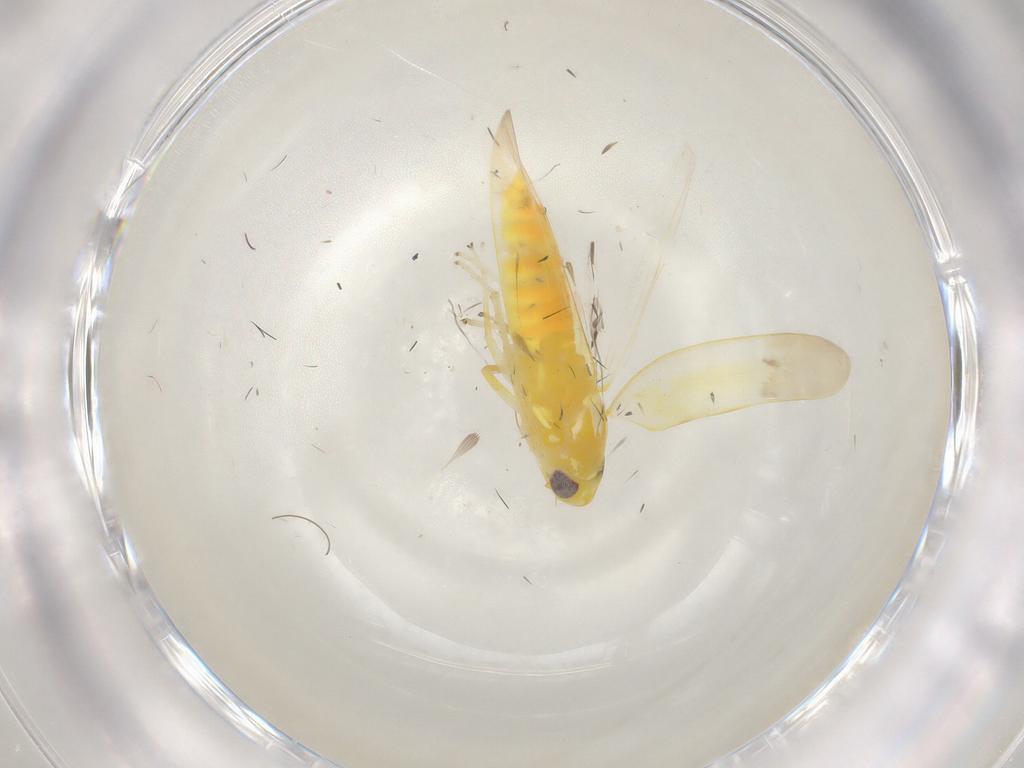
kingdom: Animalia
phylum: Arthropoda
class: Insecta
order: Hemiptera
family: Cicadellidae
